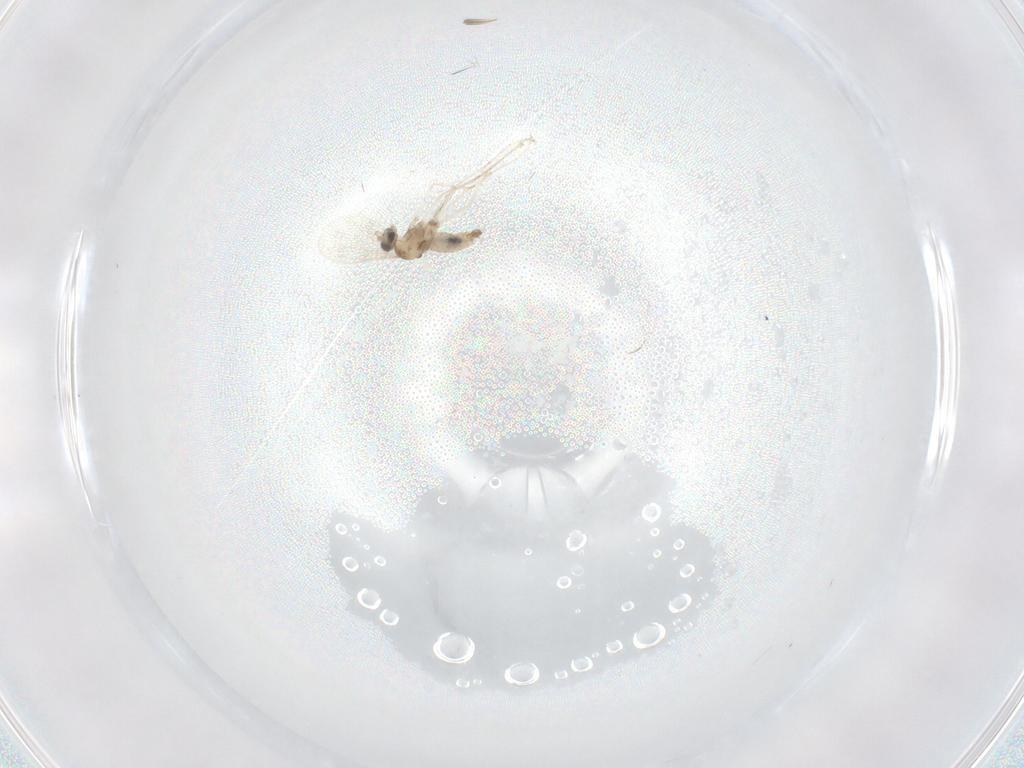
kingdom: Animalia
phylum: Arthropoda
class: Insecta
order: Diptera
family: Cecidomyiidae
